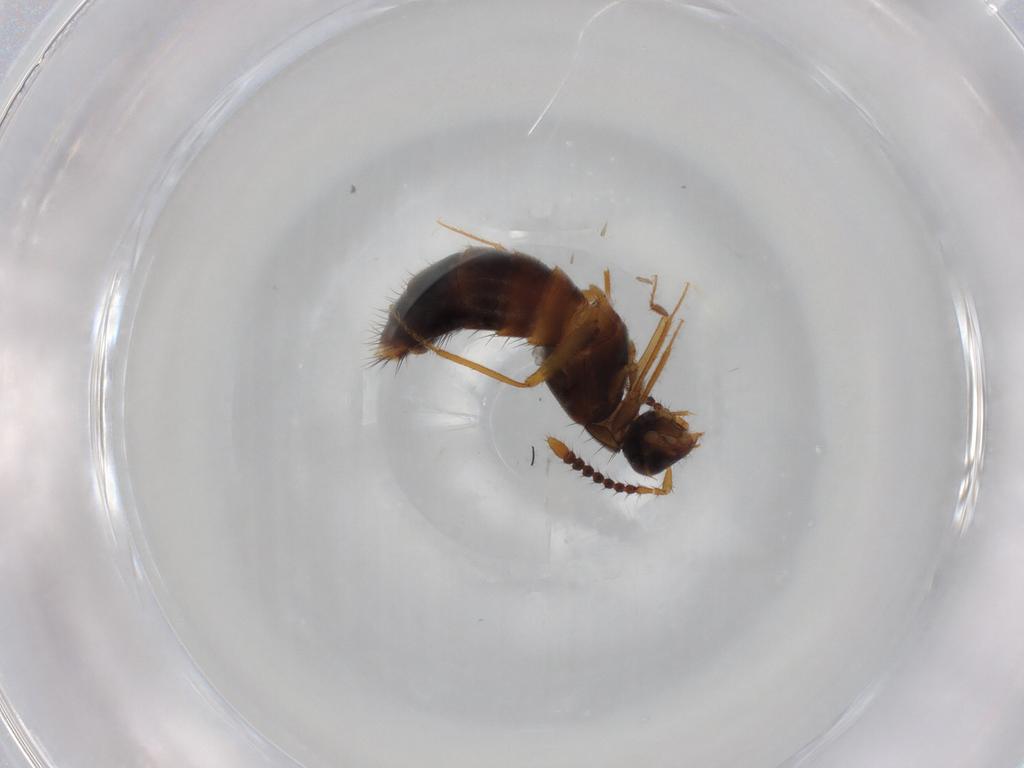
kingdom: Animalia
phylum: Arthropoda
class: Insecta
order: Coleoptera
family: Staphylinidae
